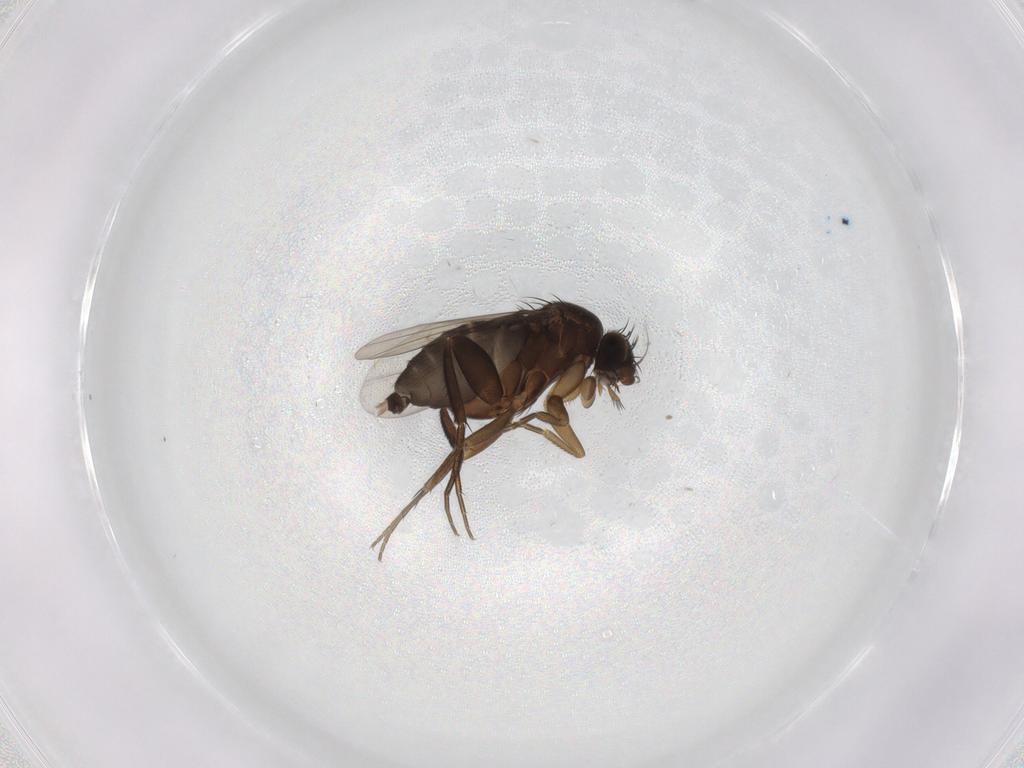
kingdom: Animalia
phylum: Arthropoda
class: Insecta
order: Diptera
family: Phoridae
